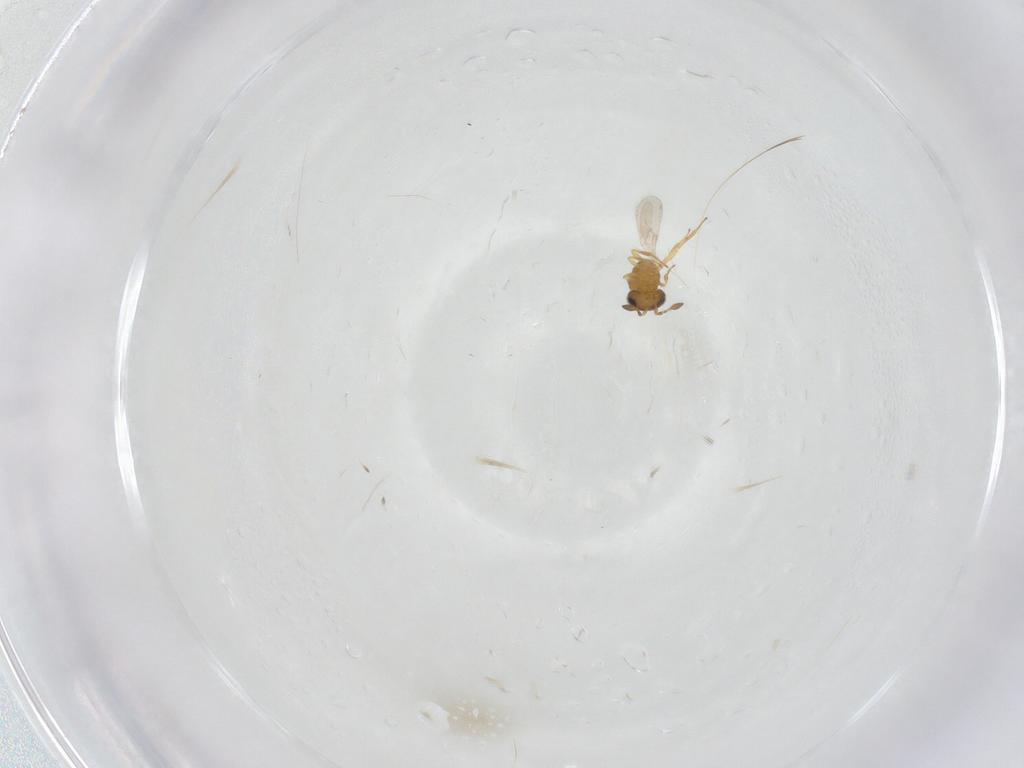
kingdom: Animalia
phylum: Arthropoda
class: Insecta
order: Hymenoptera
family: Scelionidae
